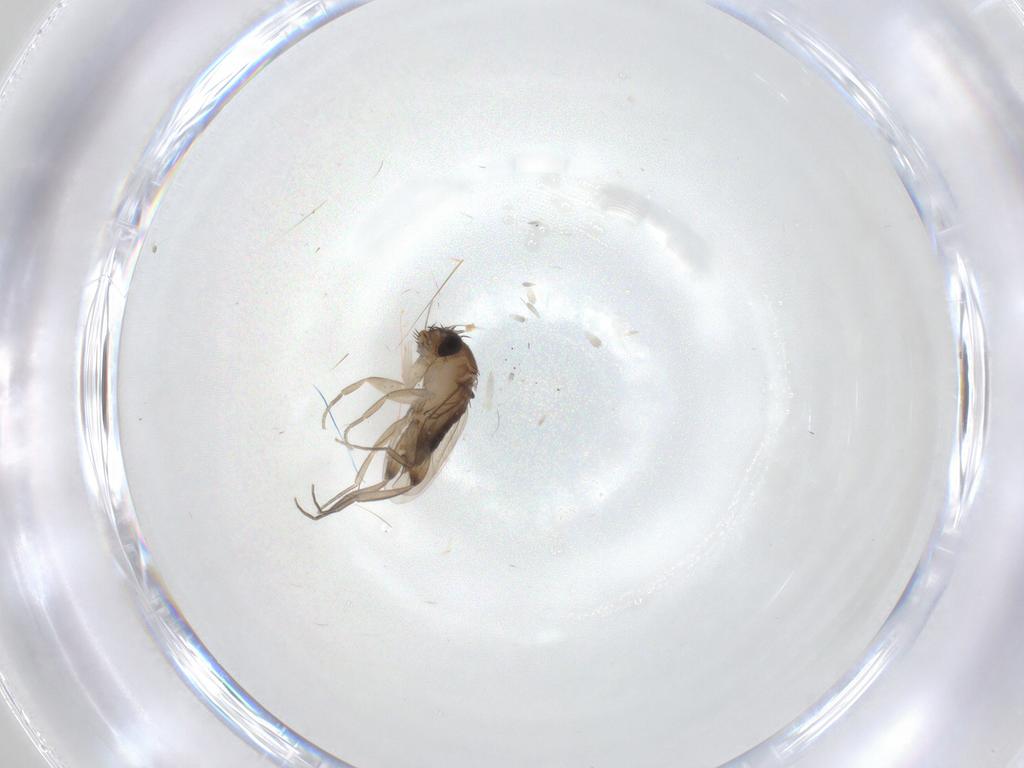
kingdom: Animalia
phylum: Arthropoda
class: Insecta
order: Diptera
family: Phoridae
